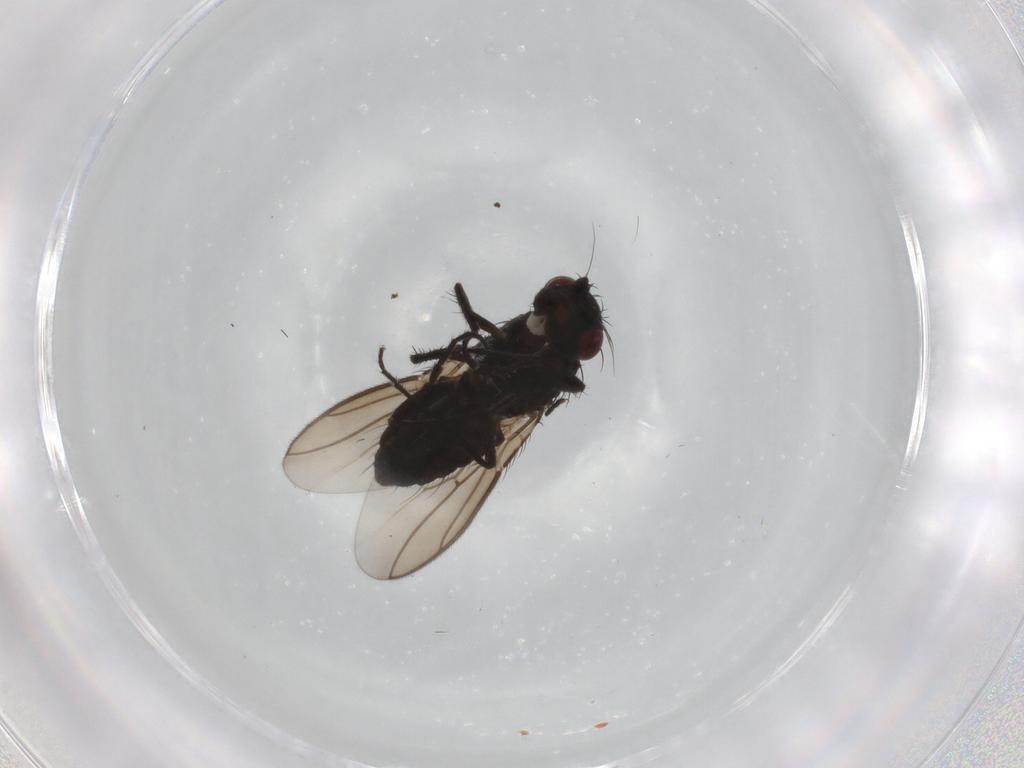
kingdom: Animalia
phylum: Arthropoda
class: Insecta
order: Diptera
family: Sphaeroceridae
